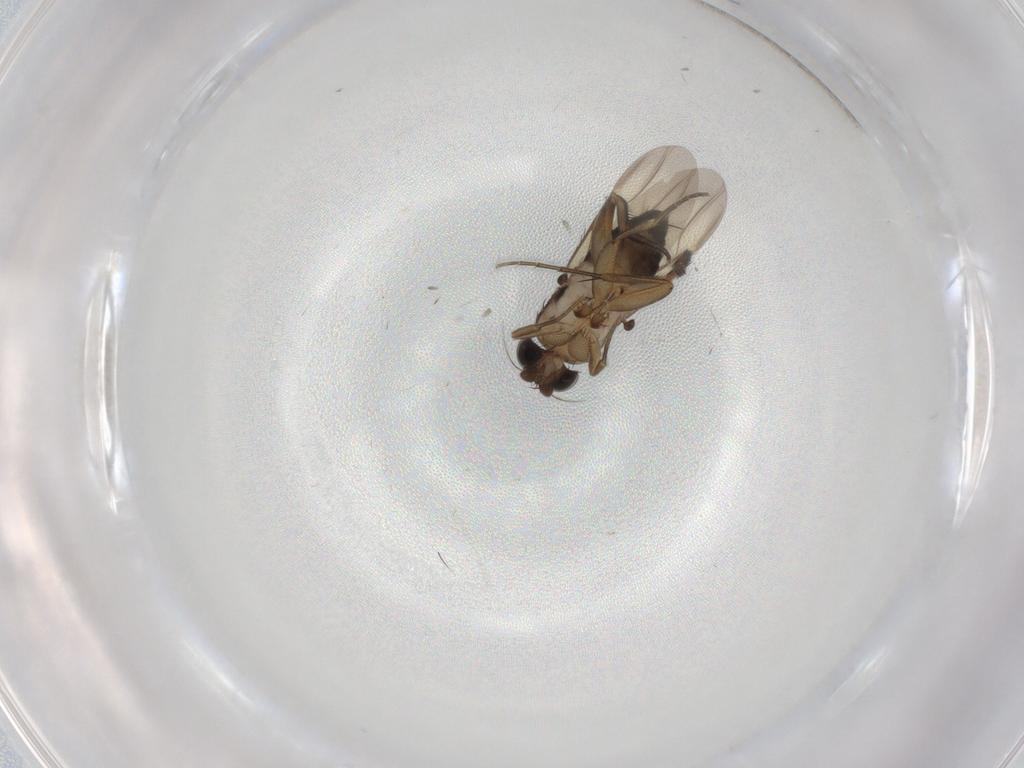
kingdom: Animalia
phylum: Arthropoda
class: Insecta
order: Diptera
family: Phoridae
